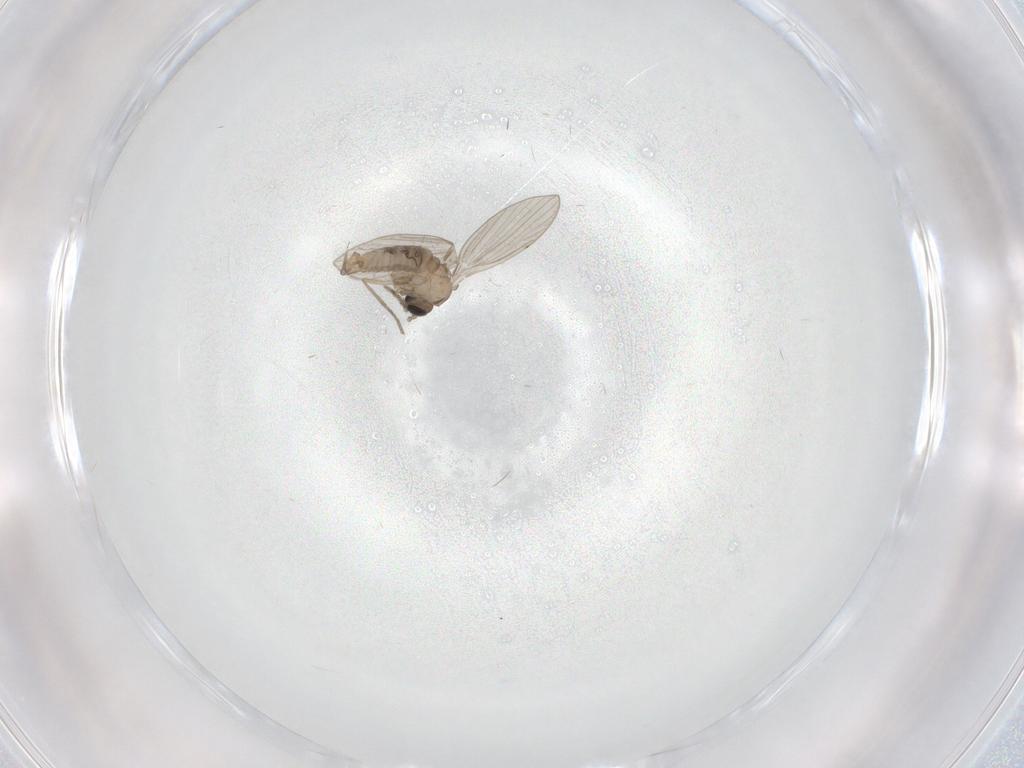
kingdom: Animalia
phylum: Arthropoda
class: Insecta
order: Diptera
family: Psychodidae
